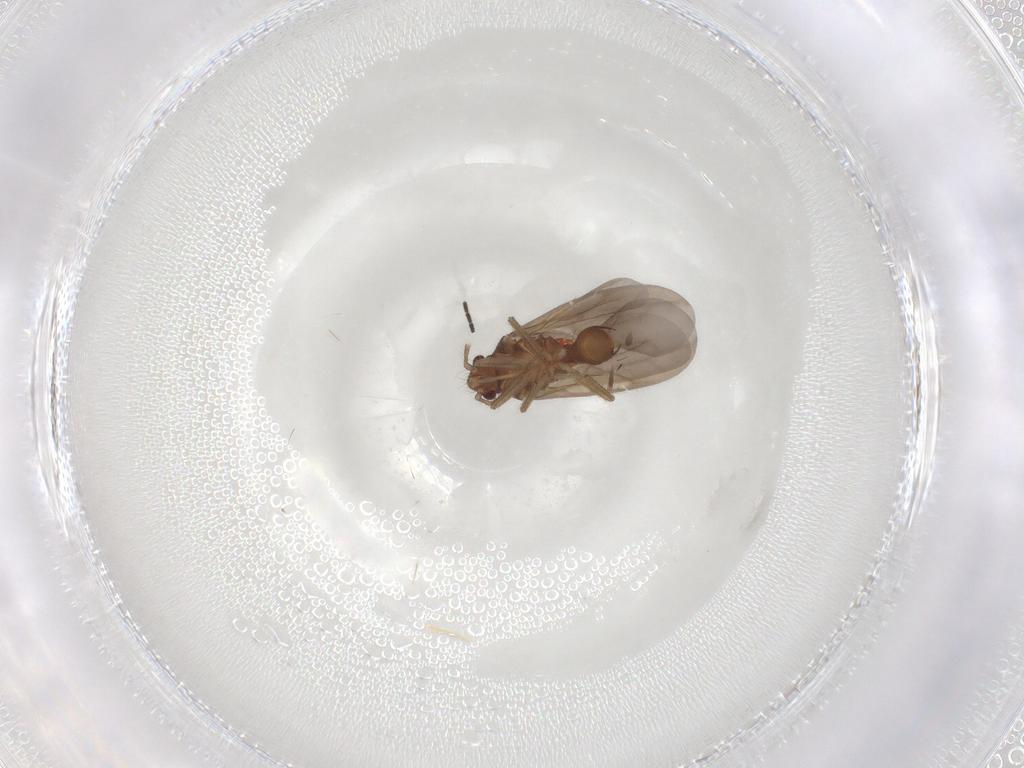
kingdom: Animalia
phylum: Arthropoda
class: Insecta
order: Hemiptera
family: Ceratocombidae
